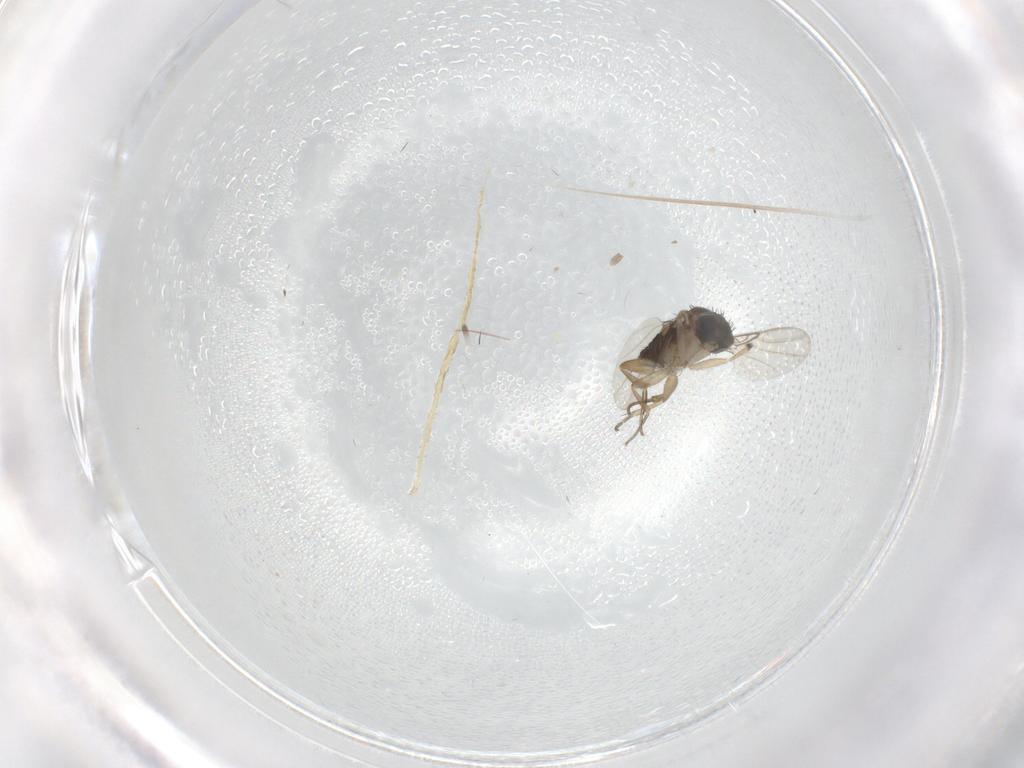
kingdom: Animalia
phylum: Arthropoda
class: Insecta
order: Diptera
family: Phoridae
